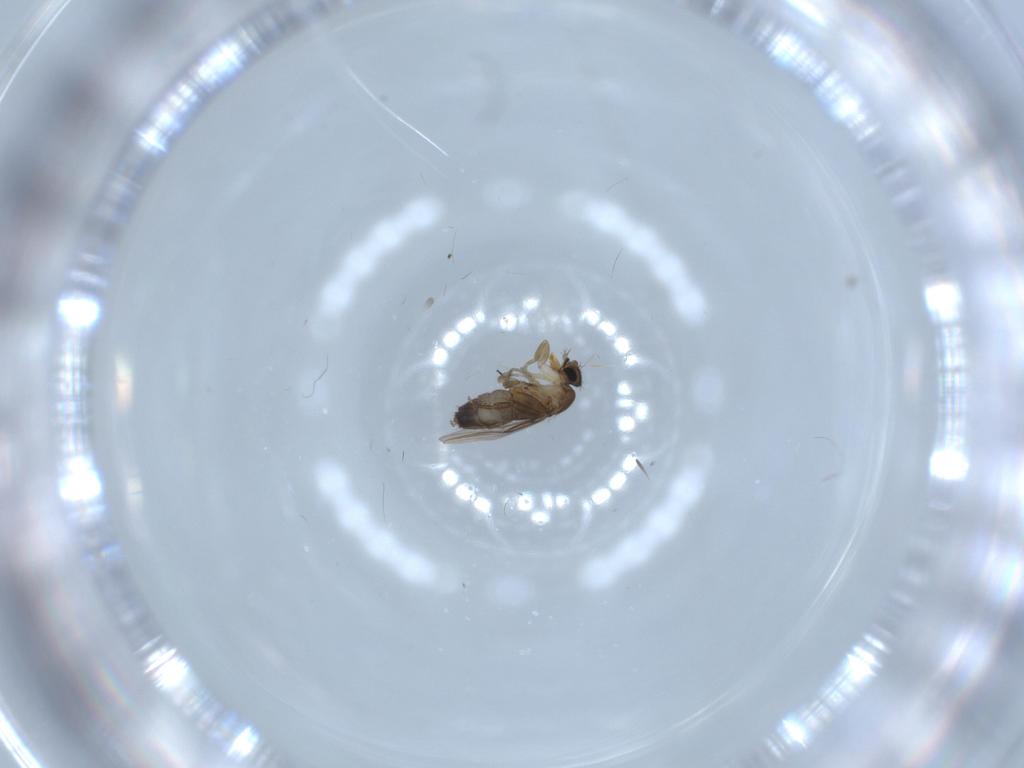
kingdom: Animalia
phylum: Arthropoda
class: Insecta
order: Diptera
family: Phoridae
